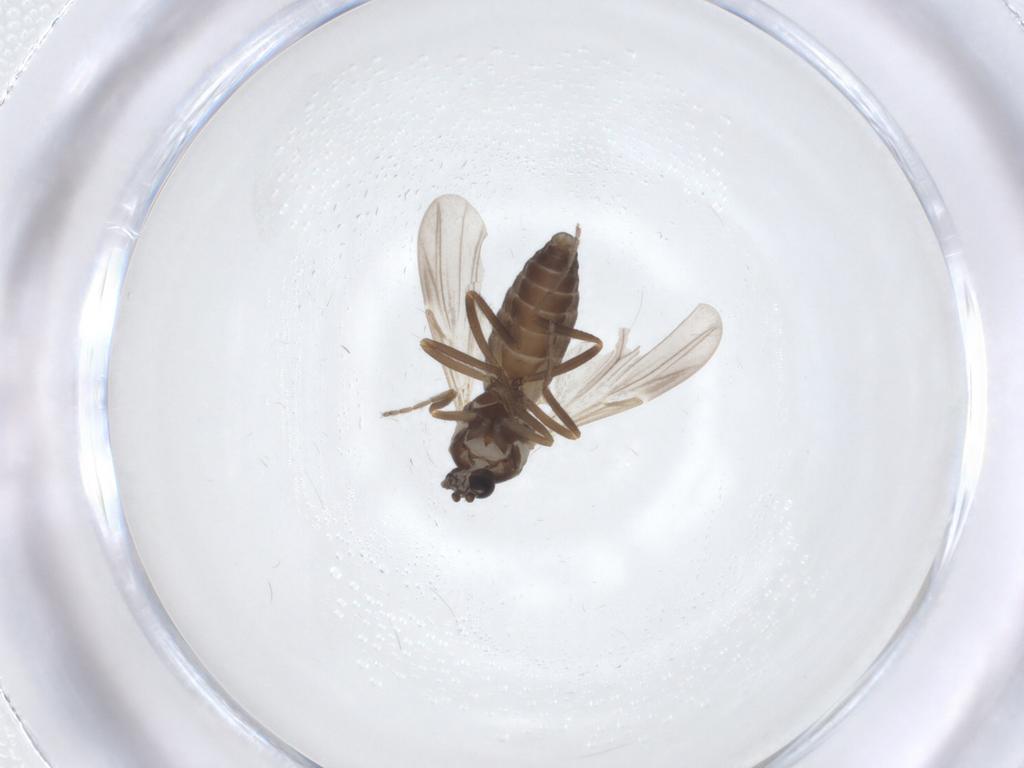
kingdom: Animalia
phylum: Arthropoda
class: Insecta
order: Diptera
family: Ceratopogonidae
